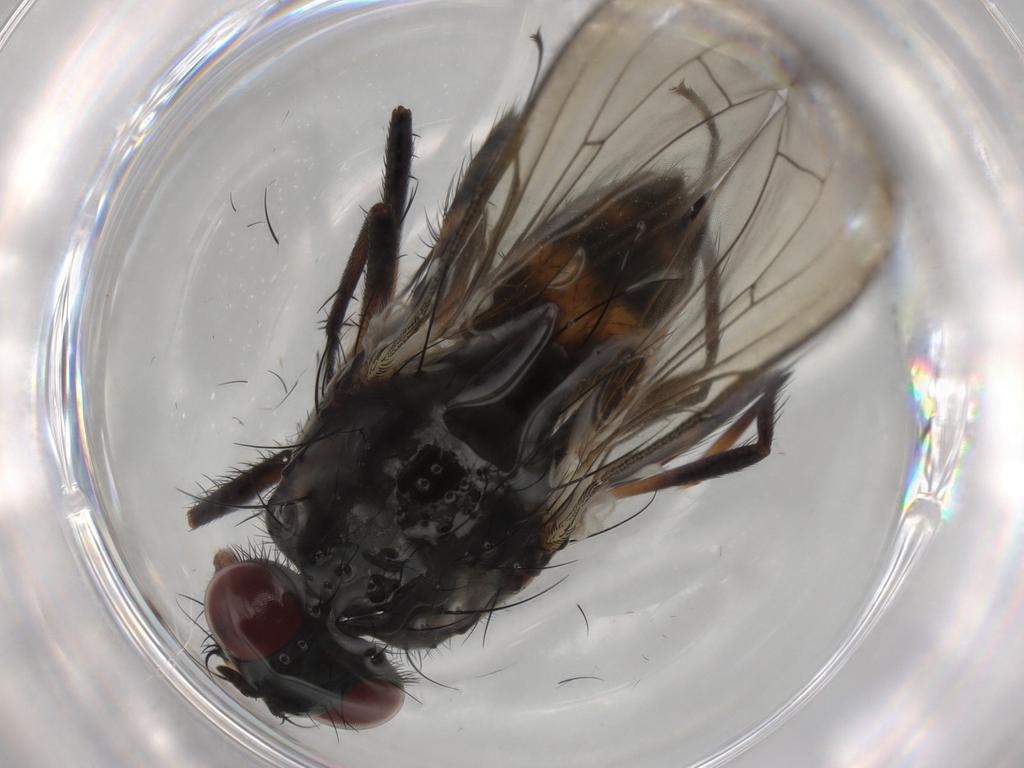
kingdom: Animalia
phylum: Arthropoda
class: Insecta
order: Diptera
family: Anthomyiidae
